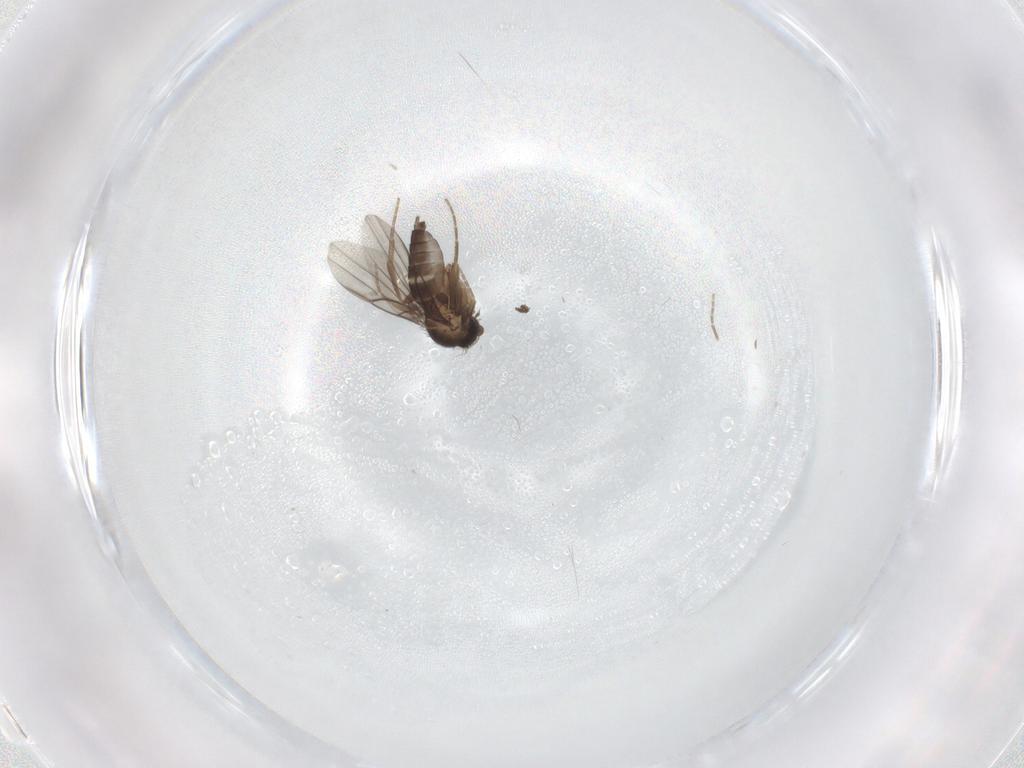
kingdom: Animalia
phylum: Arthropoda
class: Insecta
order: Diptera
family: Phoridae
